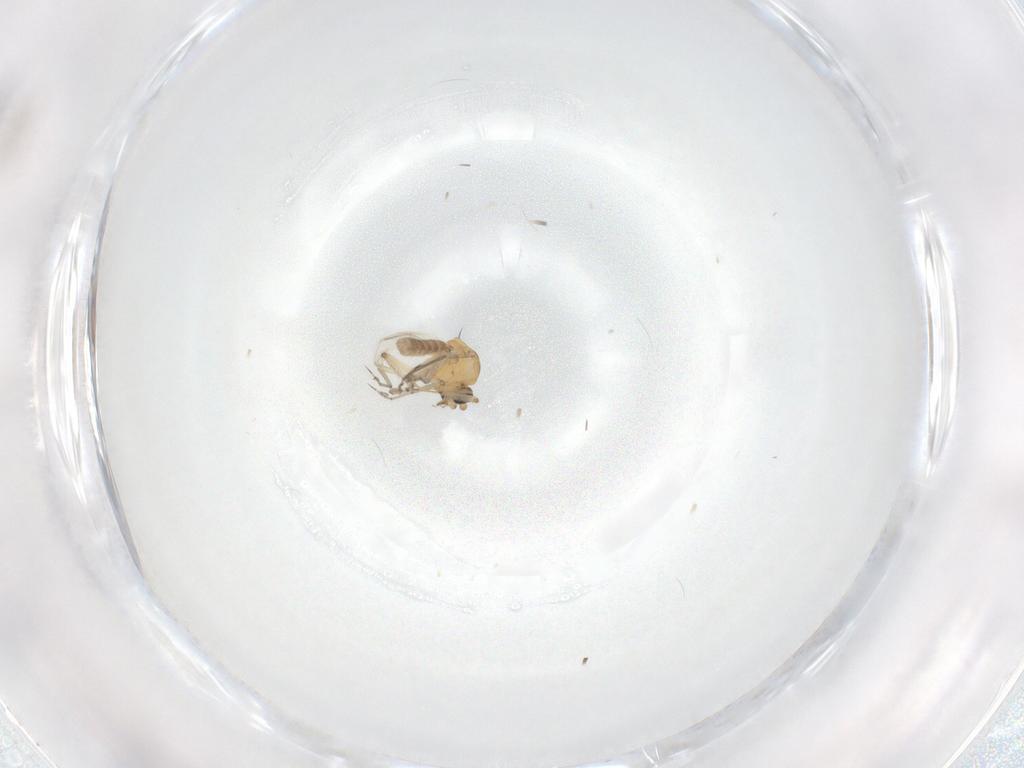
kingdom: Animalia
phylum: Arthropoda
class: Insecta
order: Diptera
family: Ceratopogonidae
